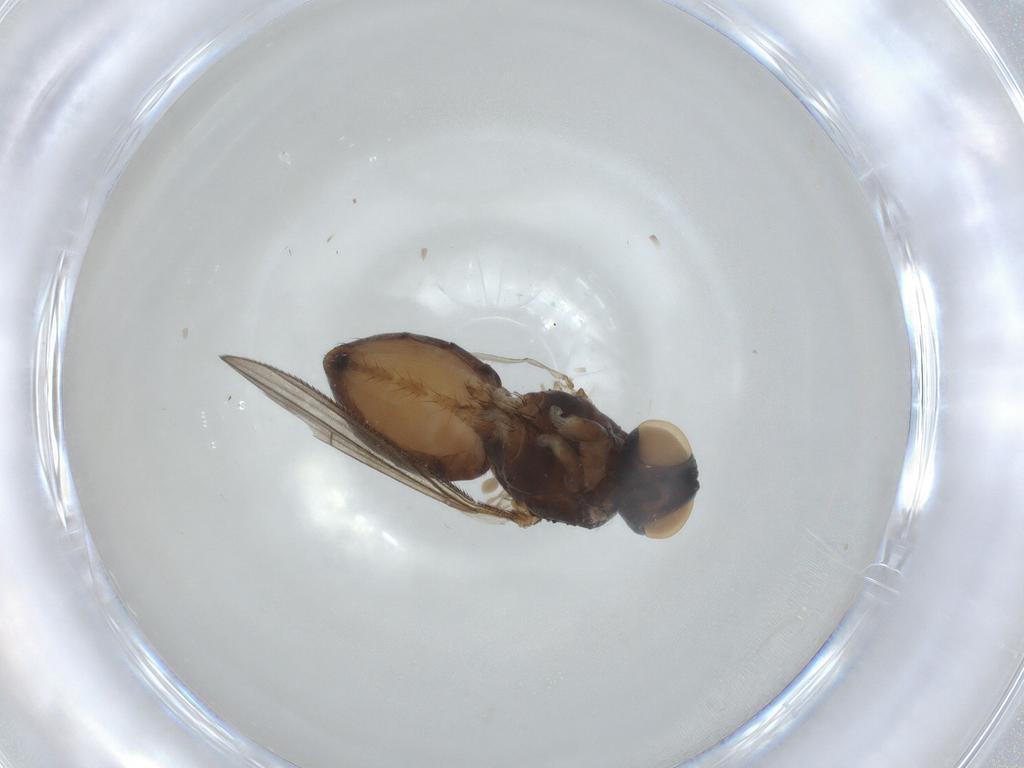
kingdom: Animalia
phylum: Arthropoda
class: Insecta
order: Diptera
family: Muscidae
